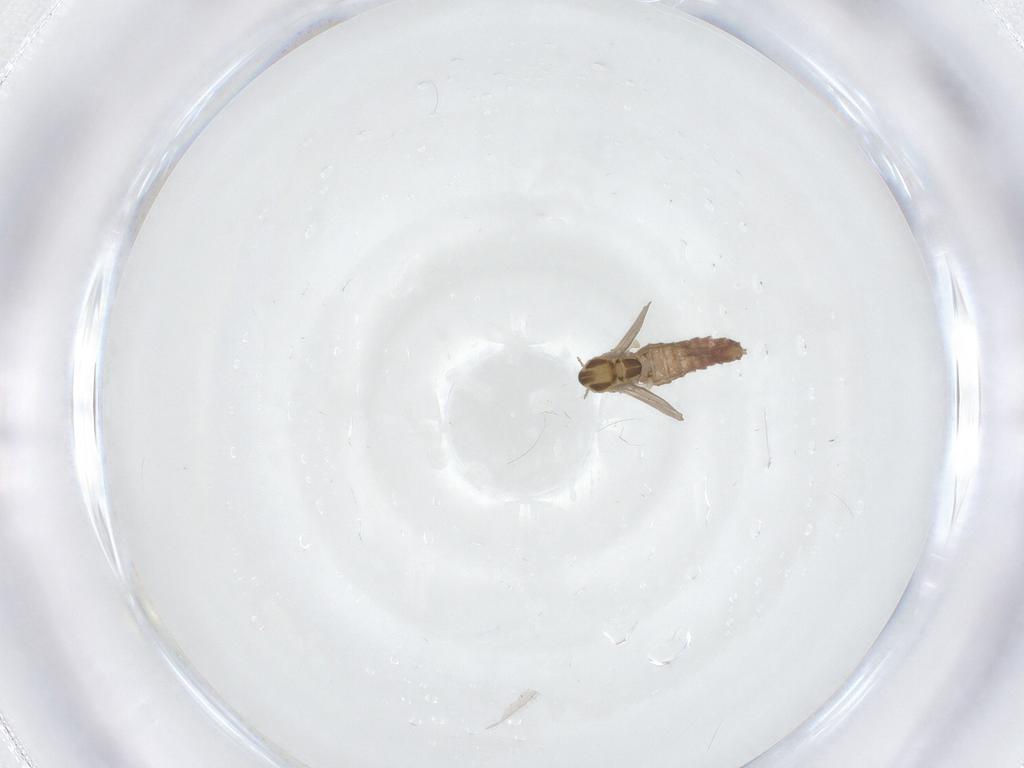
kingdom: Animalia
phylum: Arthropoda
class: Insecta
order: Diptera
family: Chironomidae
